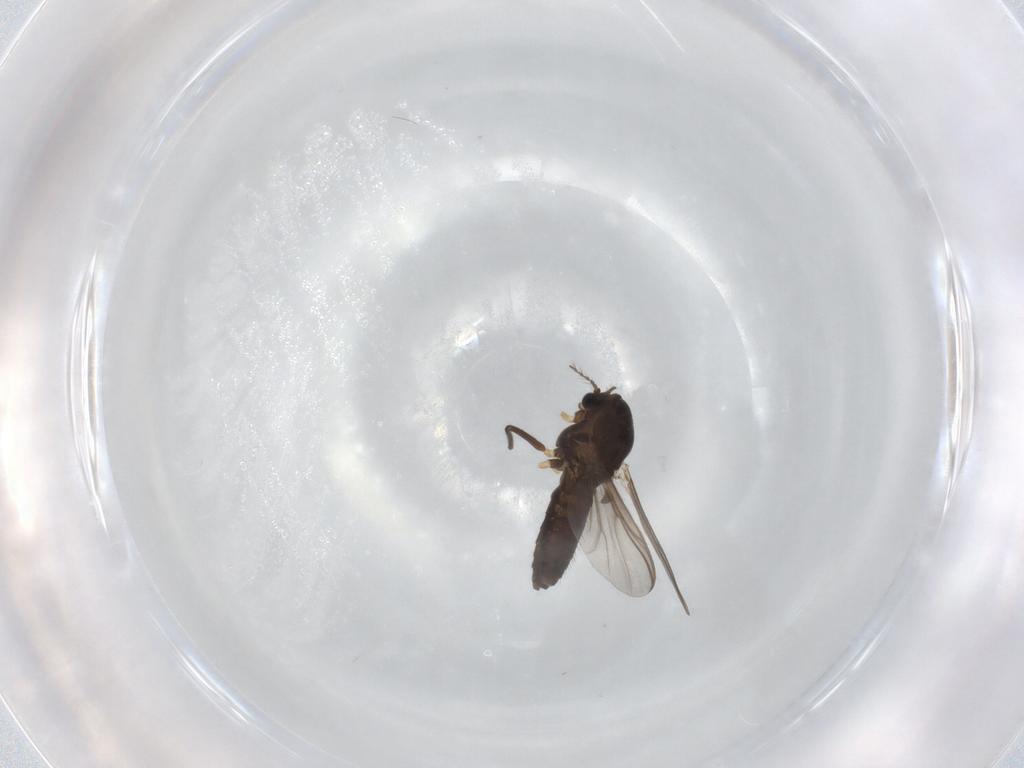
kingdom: Animalia
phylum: Arthropoda
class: Insecta
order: Diptera
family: Chironomidae
